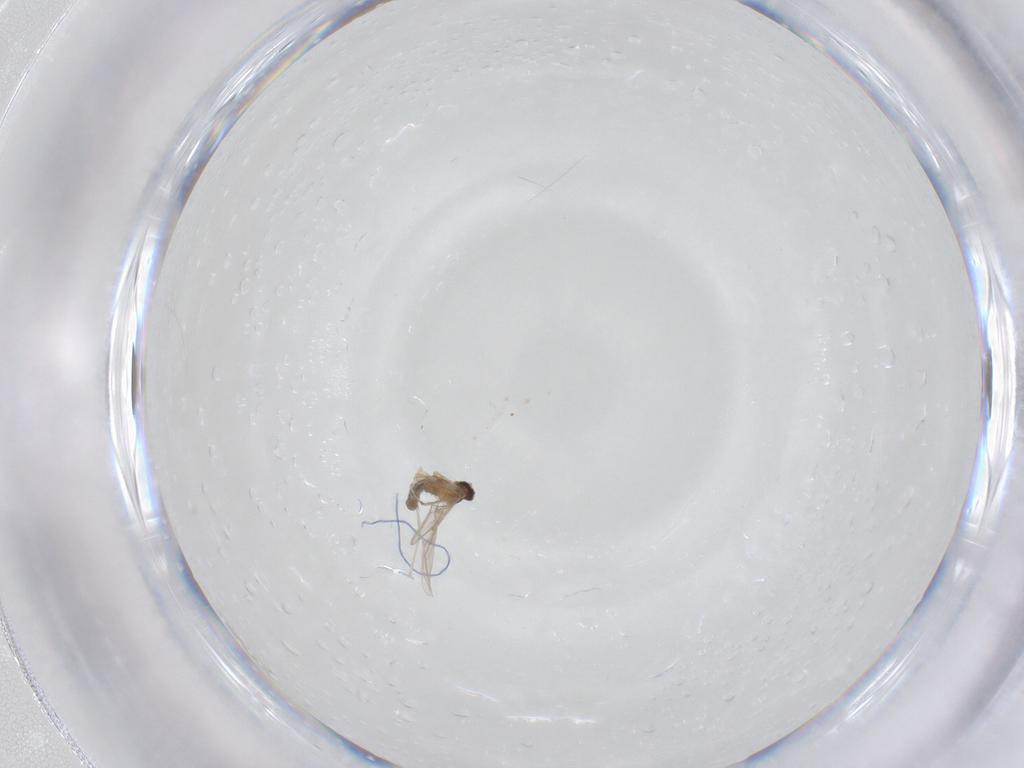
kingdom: Animalia
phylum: Arthropoda
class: Insecta
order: Diptera
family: Cecidomyiidae
